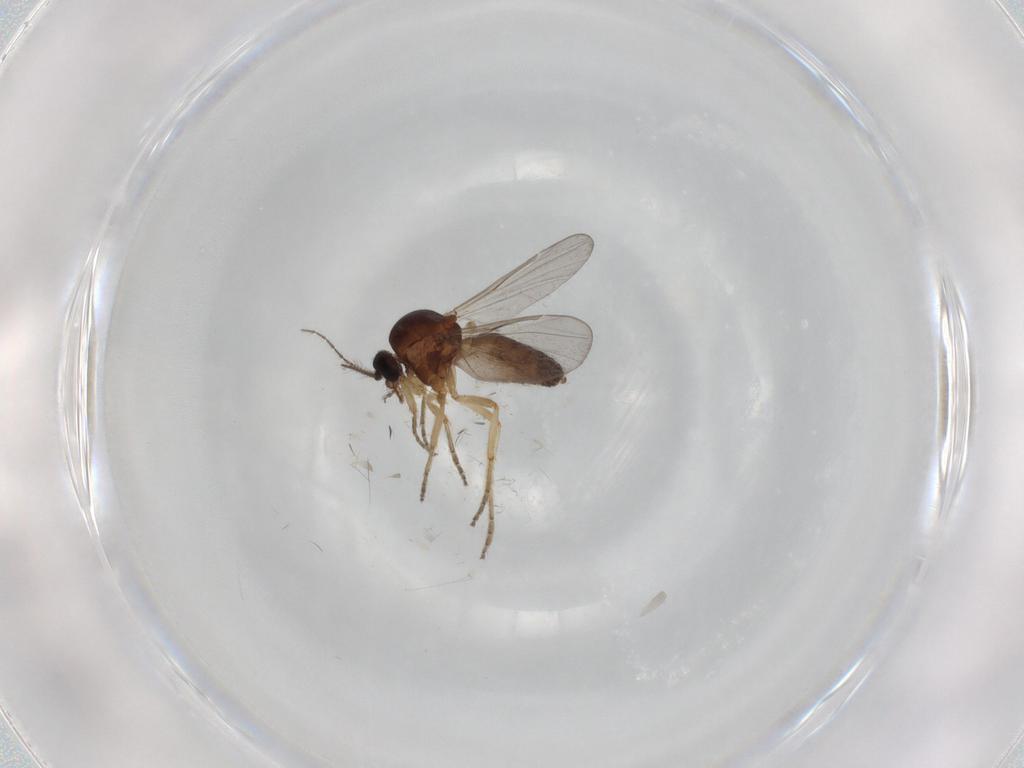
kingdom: Animalia
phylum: Arthropoda
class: Insecta
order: Diptera
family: Ceratopogonidae
